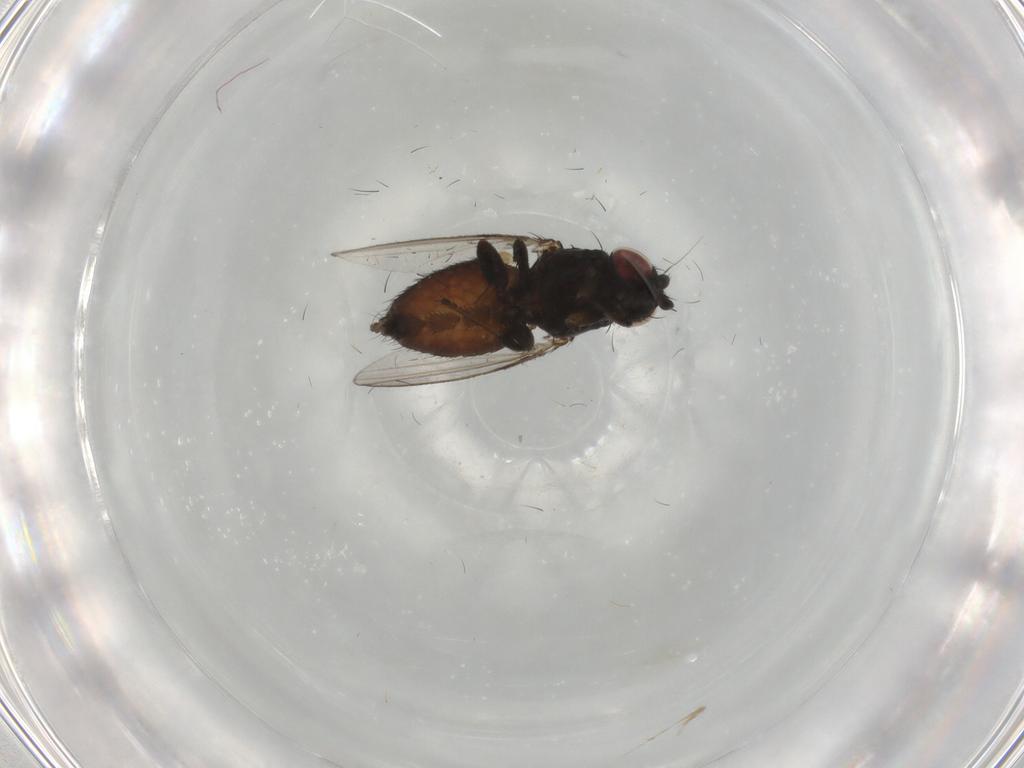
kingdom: Animalia
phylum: Arthropoda
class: Insecta
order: Diptera
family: Milichiidae
